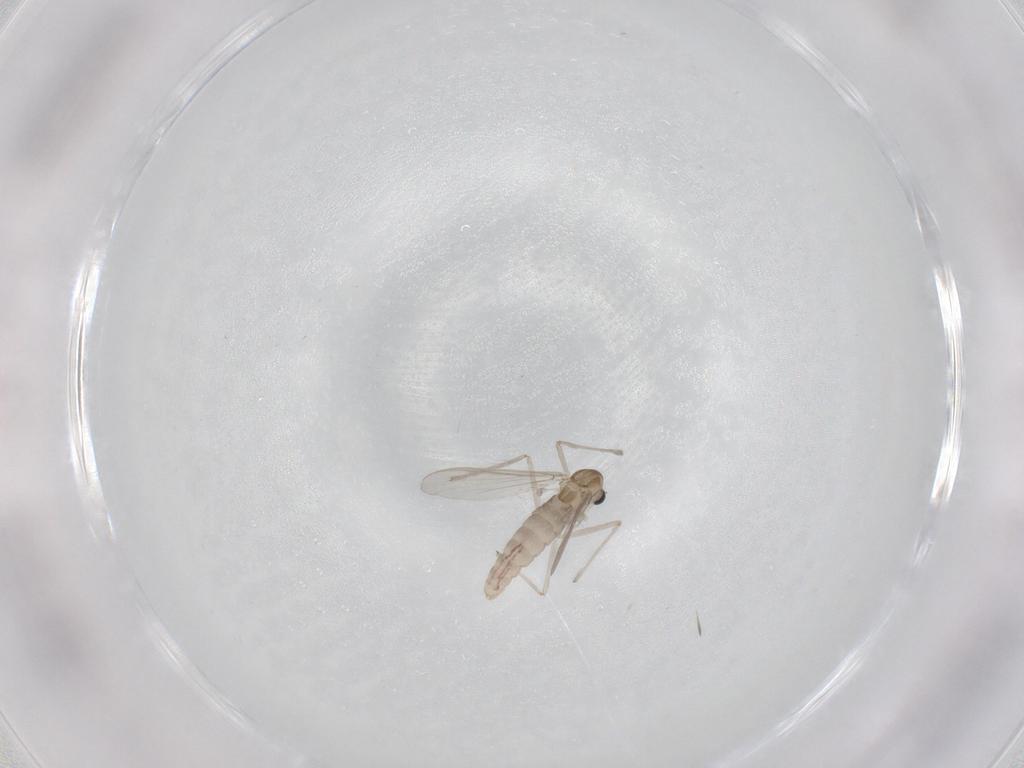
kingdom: Animalia
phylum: Arthropoda
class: Insecta
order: Diptera
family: Chironomidae
